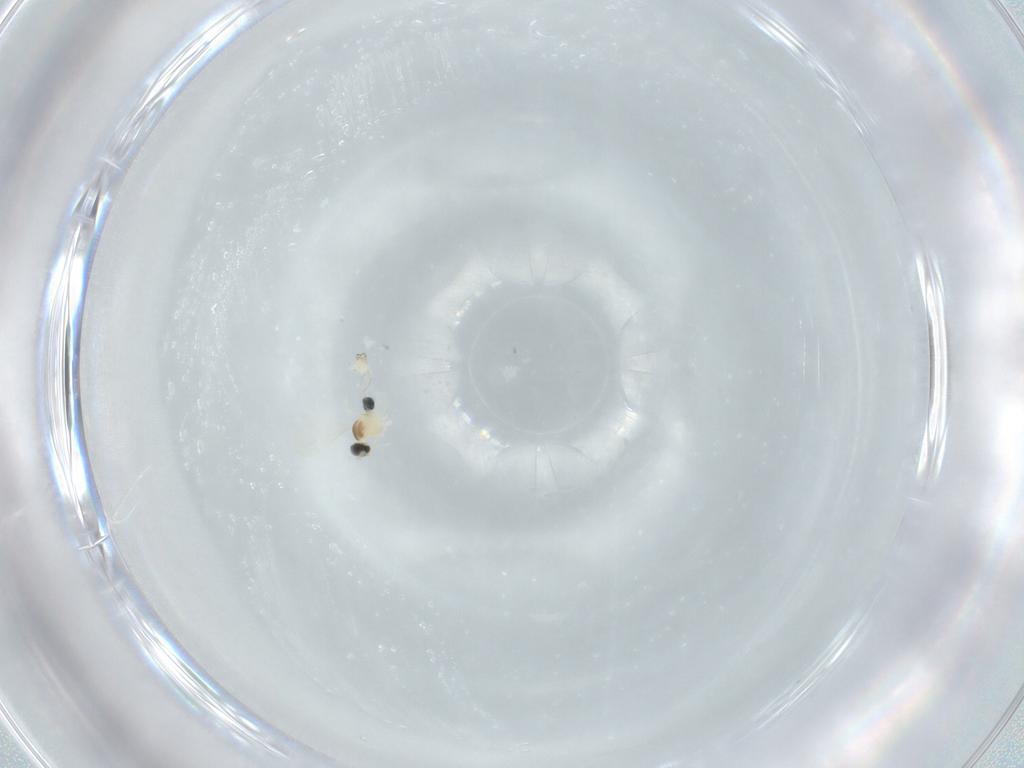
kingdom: Animalia
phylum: Arthropoda
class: Insecta
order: Diptera
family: Cecidomyiidae
